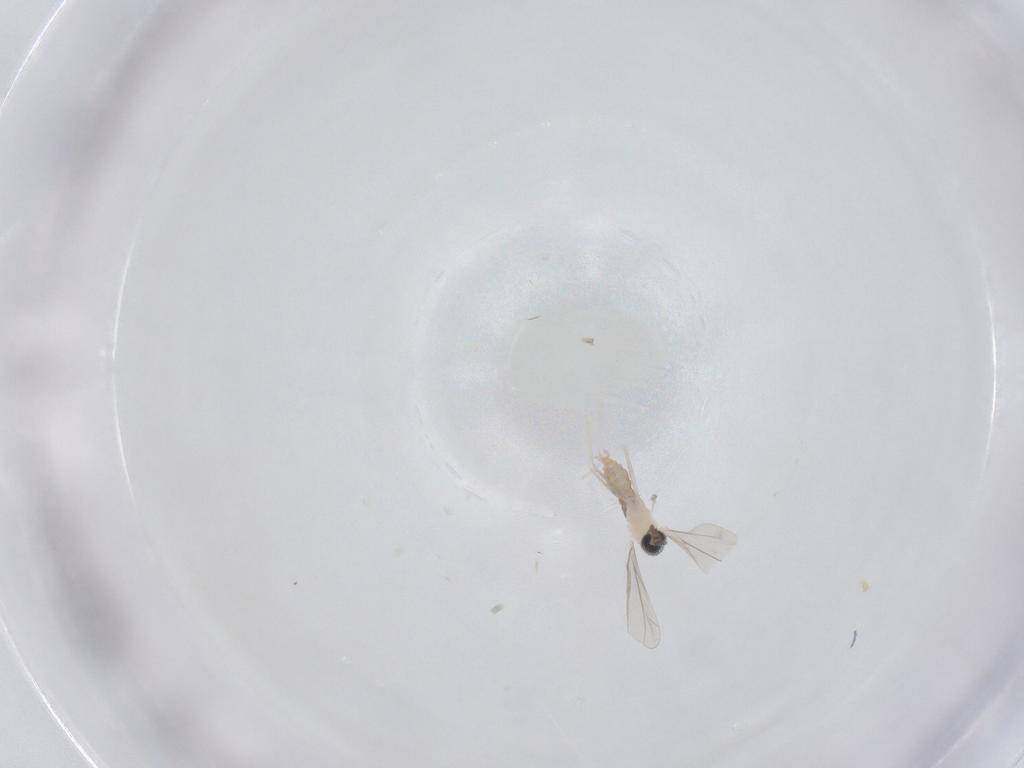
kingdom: Animalia
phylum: Arthropoda
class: Insecta
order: Diptera
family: Cecidomyiidae
